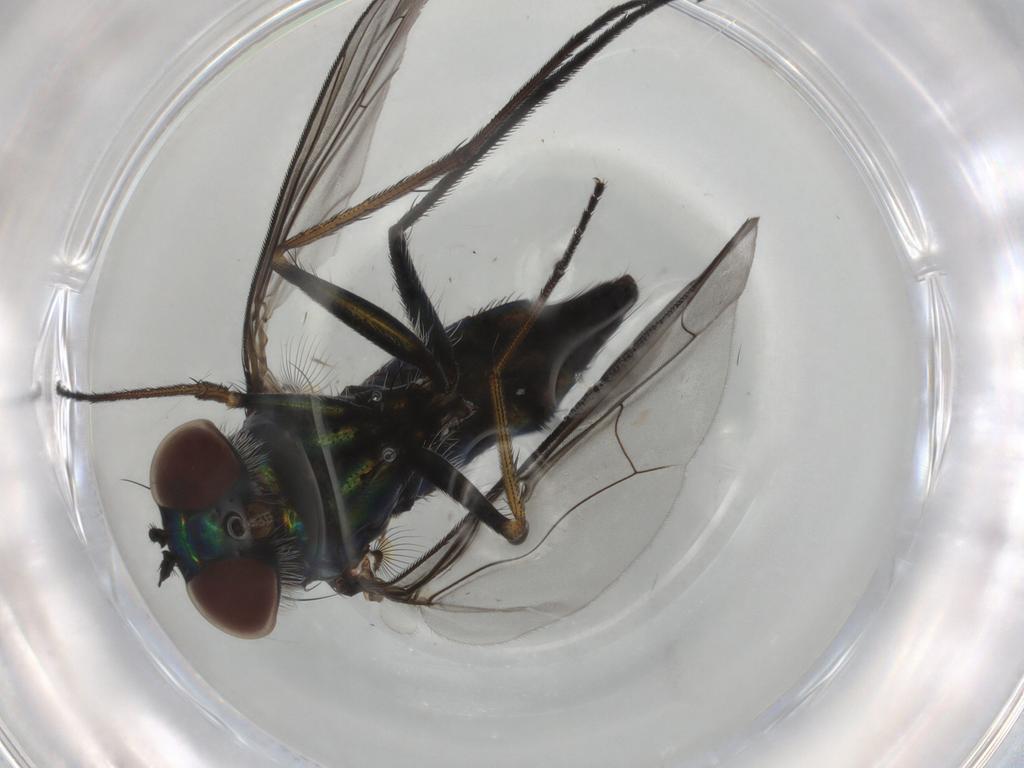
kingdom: Animalia
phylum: Arthropoda
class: Insecta
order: Diptera
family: Dolichopodidae
